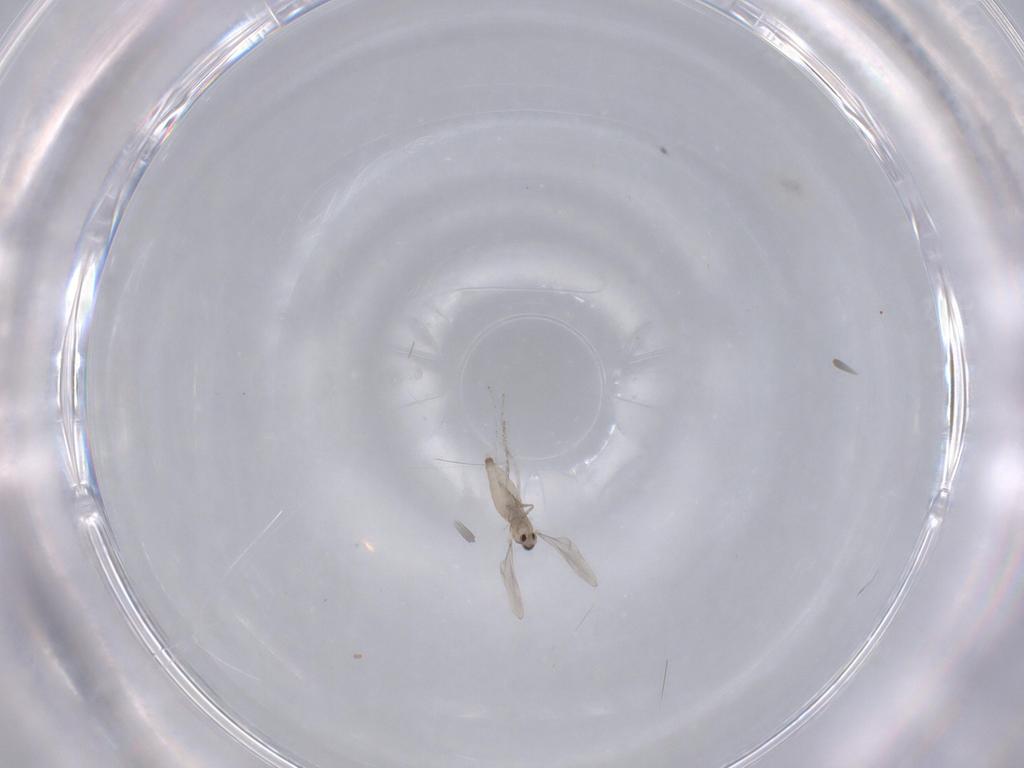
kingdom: Animalia
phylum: Arthropoda
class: Insecta
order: Diptera
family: Cecidomyiidae
